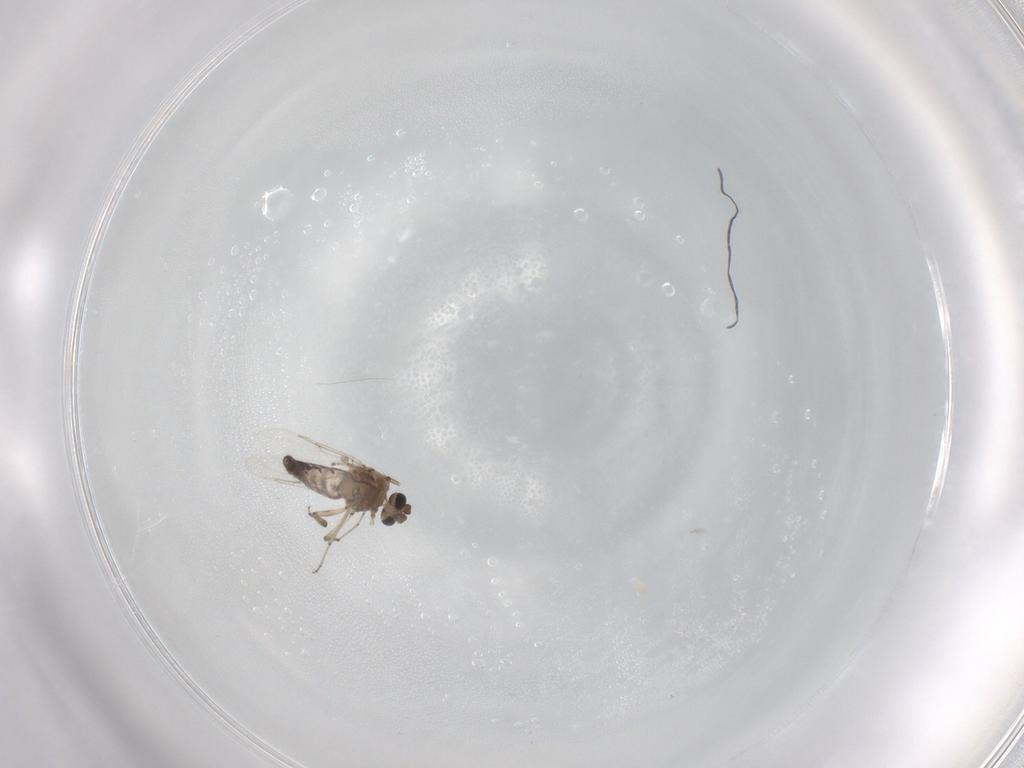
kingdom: Animalia
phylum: Arthropoda
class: Insecta
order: Diptera
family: Ceratopogonidae
